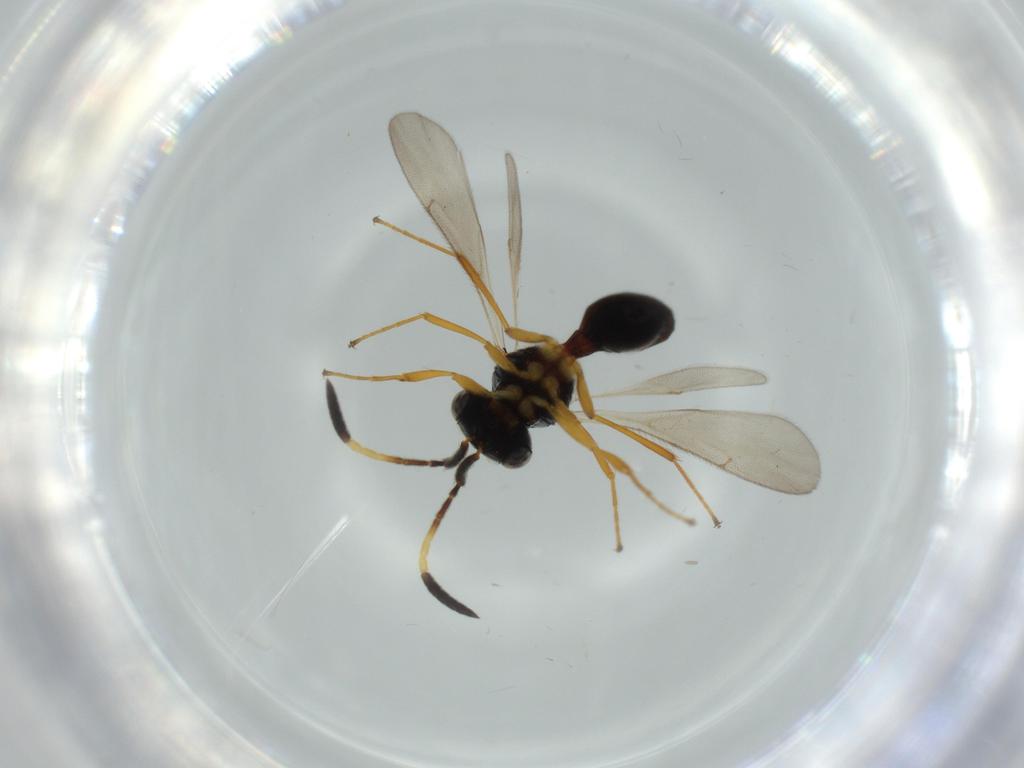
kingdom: Animalia
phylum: Arthropoda
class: Insecta
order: Hymenoptera
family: Scelionidae
